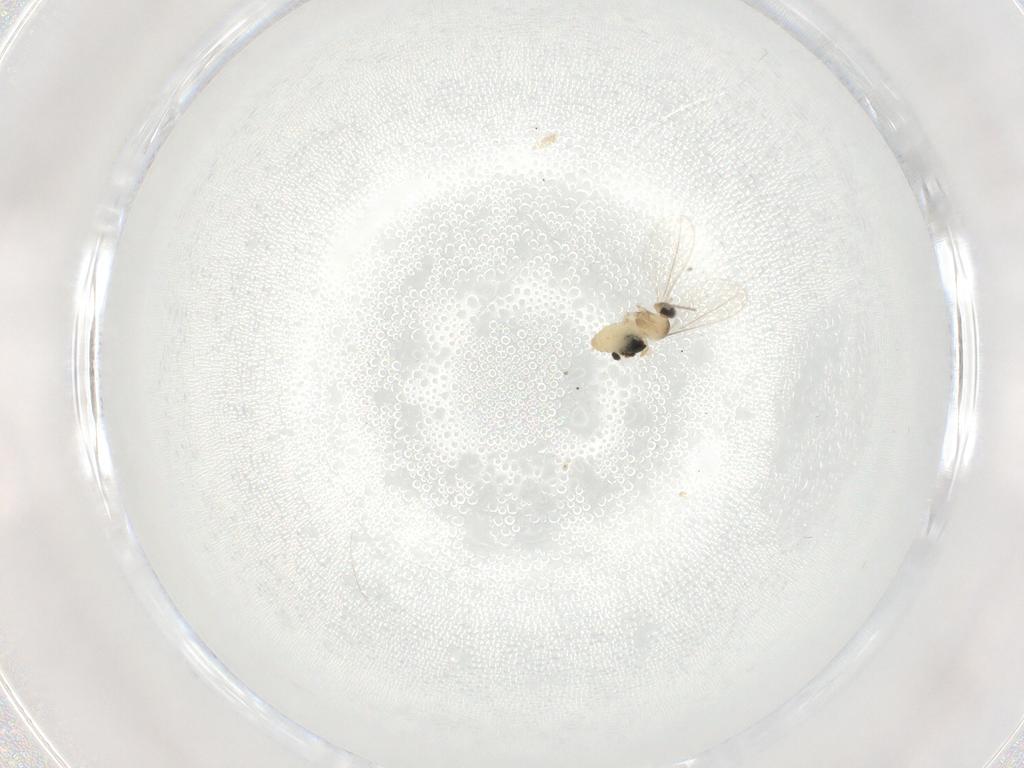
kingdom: Animalia
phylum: Arthropoda
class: Insecta
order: Diptera
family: Cecidomyiidae
